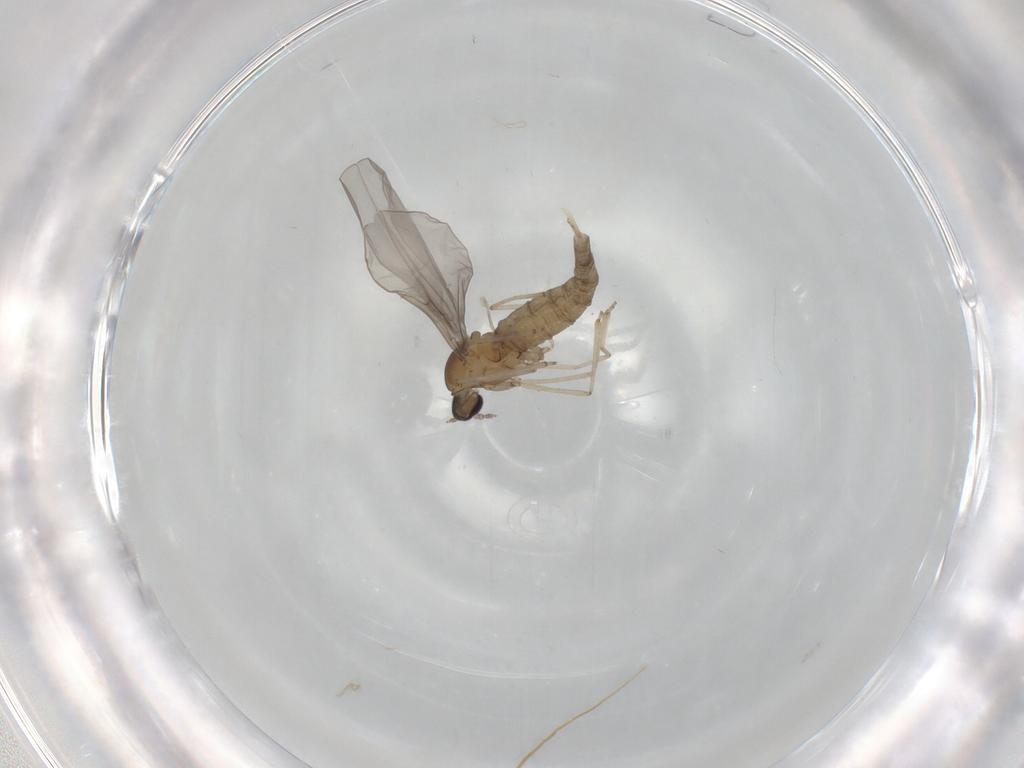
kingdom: Animalia
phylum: Arthropoda
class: Insecta
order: Diptera
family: Chironomidae
